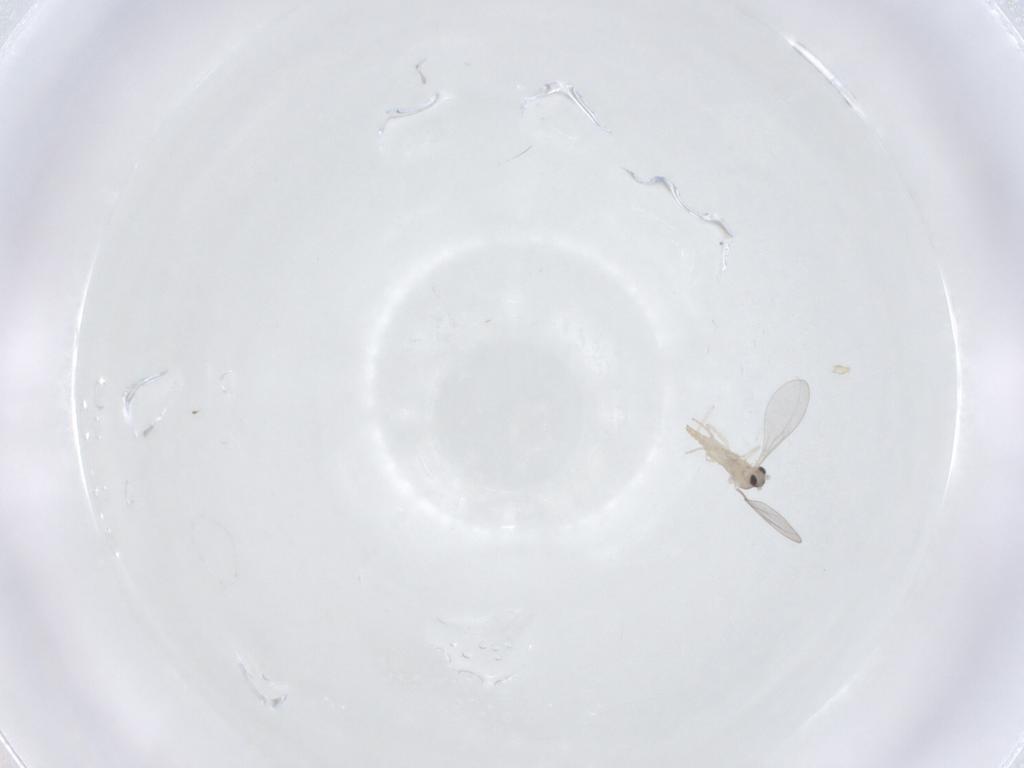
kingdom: Animalia
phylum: Arthropoda
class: Insecta
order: Diptera
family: Sciaridae
